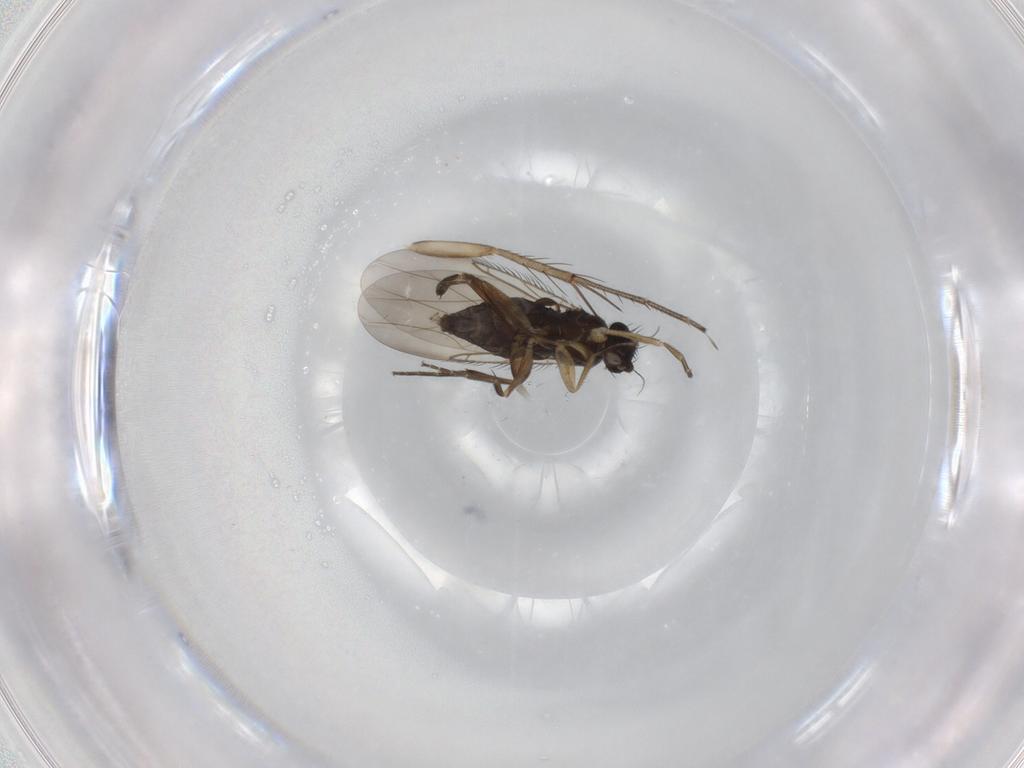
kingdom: Animalia
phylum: Arthropoda
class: Insecta
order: Diptera
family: Phoridae
